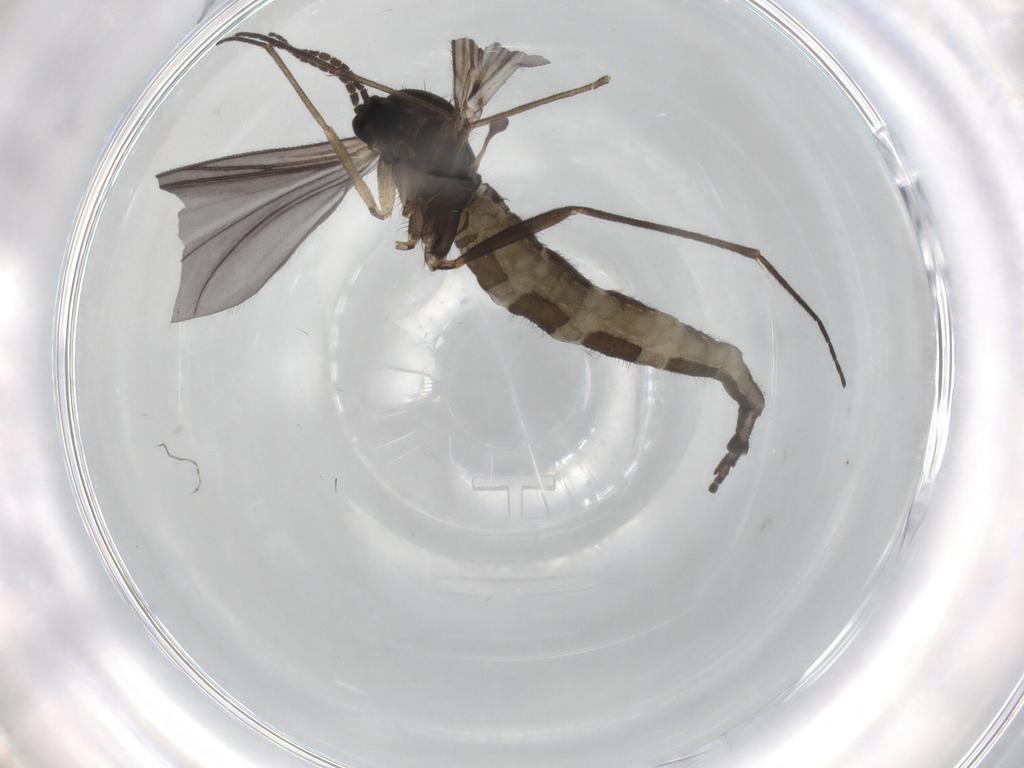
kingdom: Animalia
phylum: Arthropoda
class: Insecta
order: Diptera
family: Sciaridae
